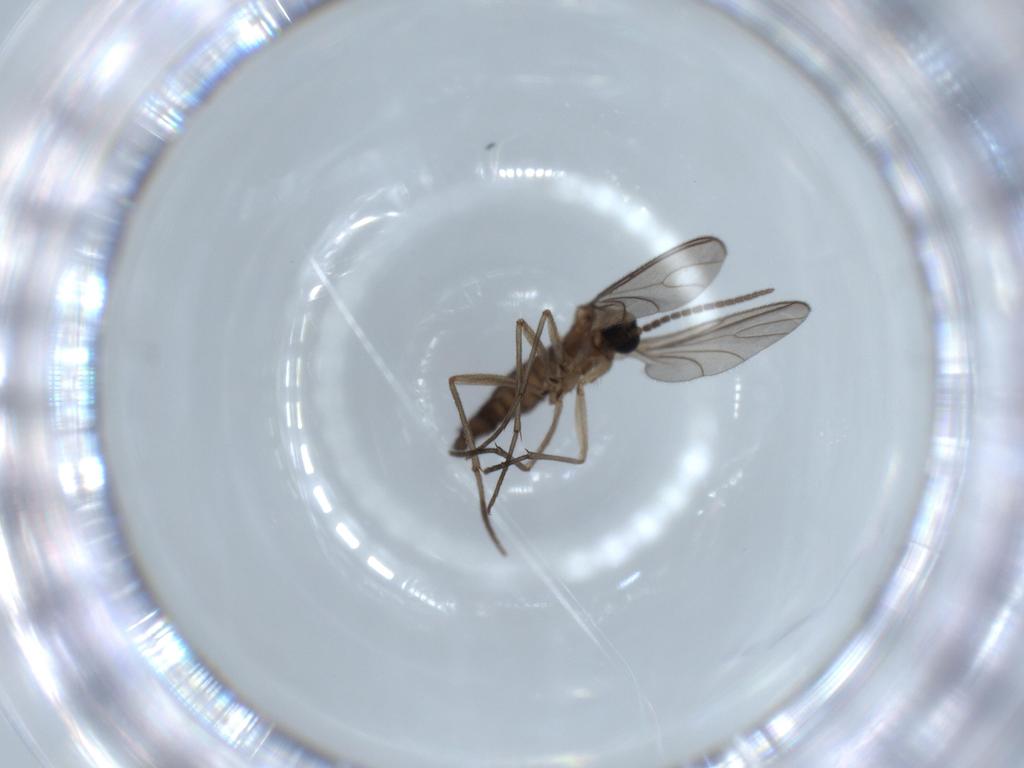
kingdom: Animalia
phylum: Arthropoda
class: Insecta
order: Diptera
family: Sciaridae
